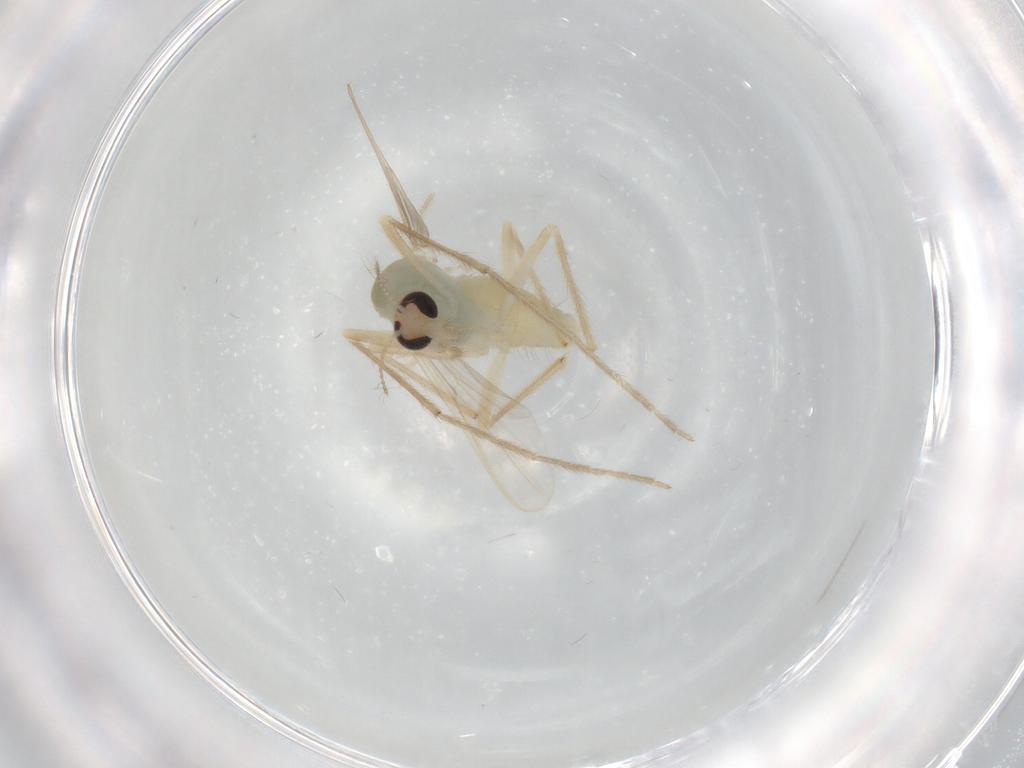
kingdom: Animalia
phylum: Arthropoda
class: Insecta
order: Diptera
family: Chironomidae
